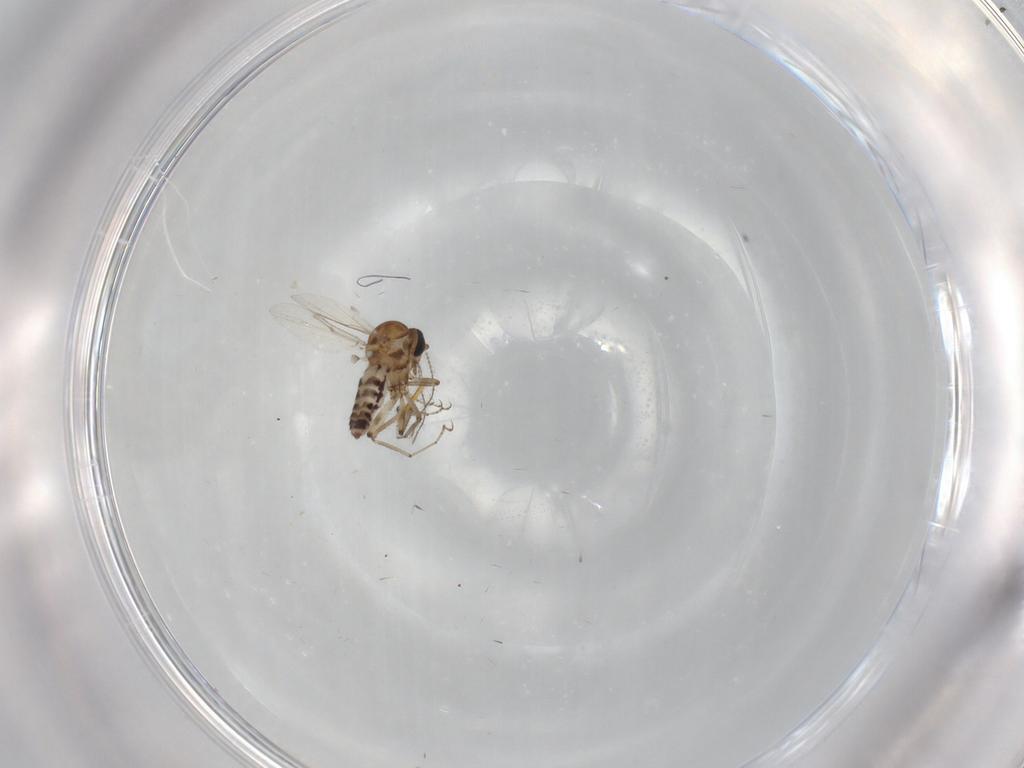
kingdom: Animalia
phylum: Arthropoda
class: Insecta
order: Diptera
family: Ceratopogonidae
